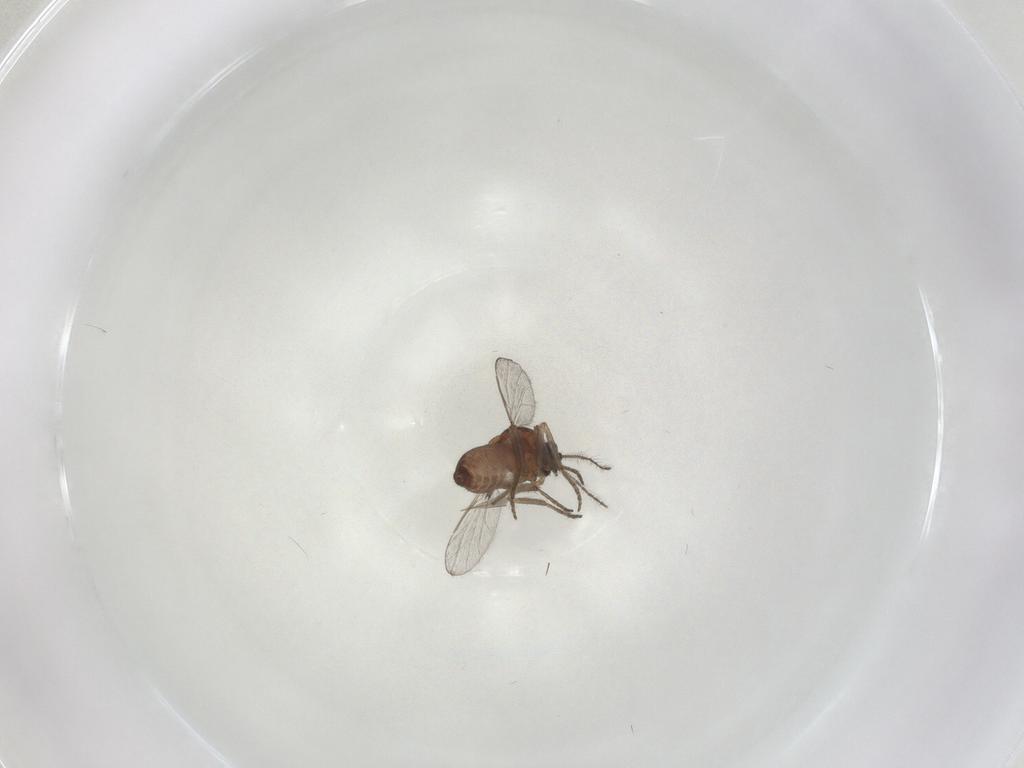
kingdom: Animalia
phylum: Arthropoda
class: Insecta
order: Diptera
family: Ceratopogonidae
